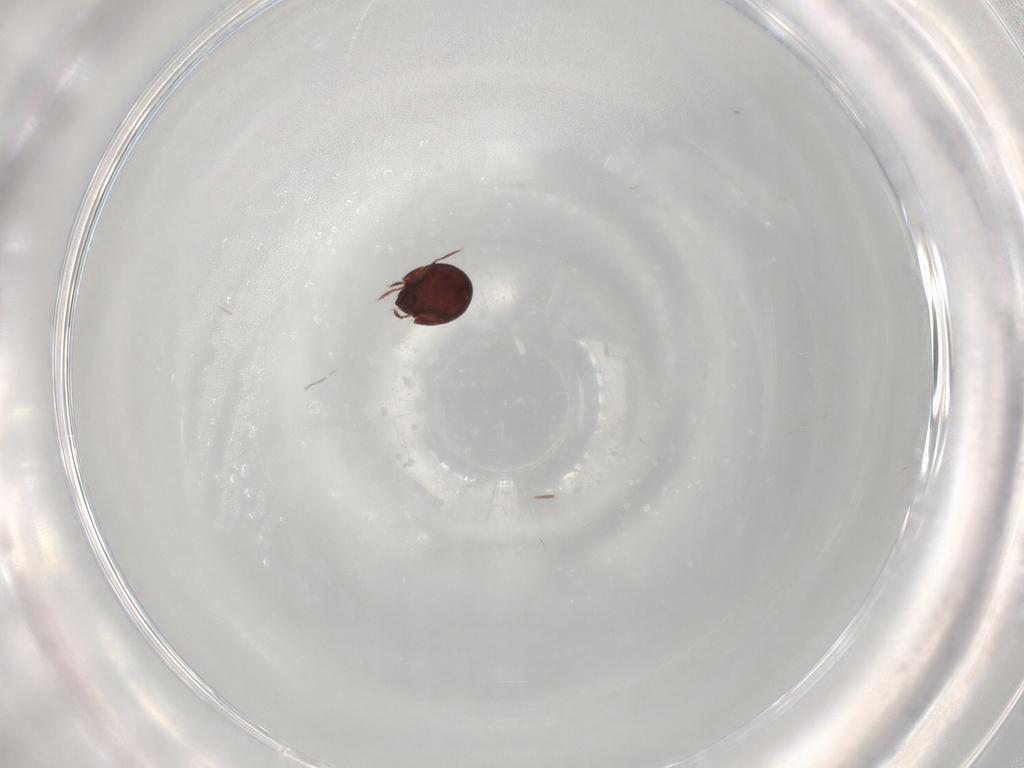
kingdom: Animalia
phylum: Arthropoda
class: Arachnida
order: Sarcoptiformes
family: Humerobatidae
